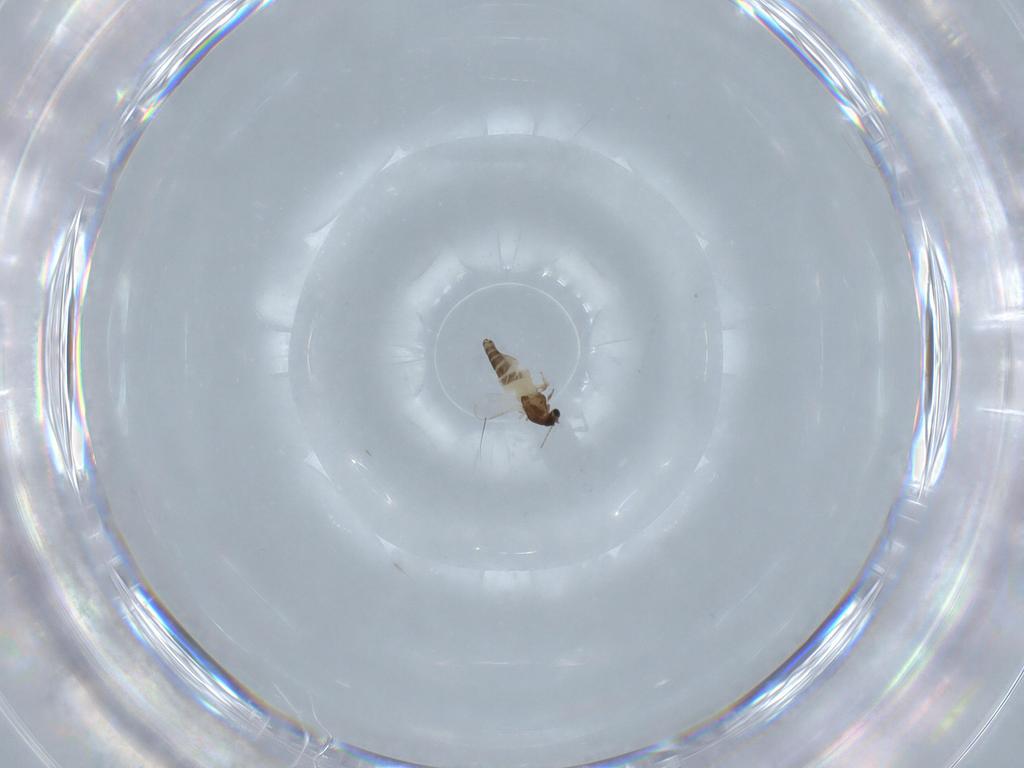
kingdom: Animalia
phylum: Arthropoda
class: Insecta
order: Diptera
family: Chironomidae
